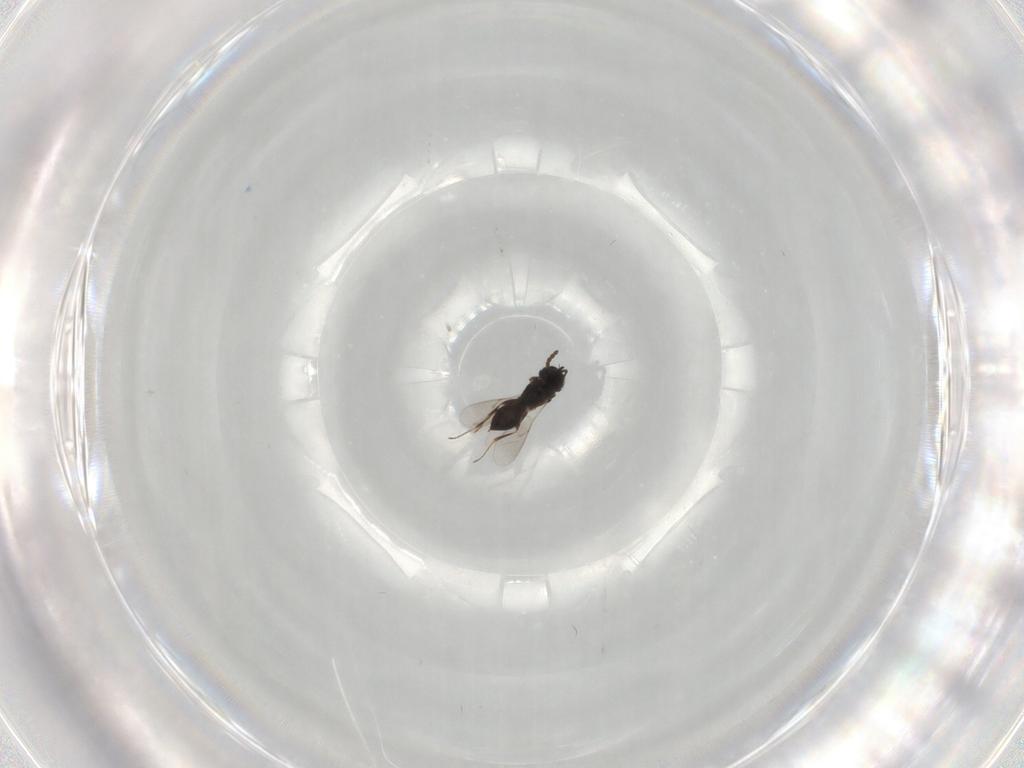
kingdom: Animalia
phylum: Arthropoda
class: Insecta
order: Hymenoptera
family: Scelionidae
